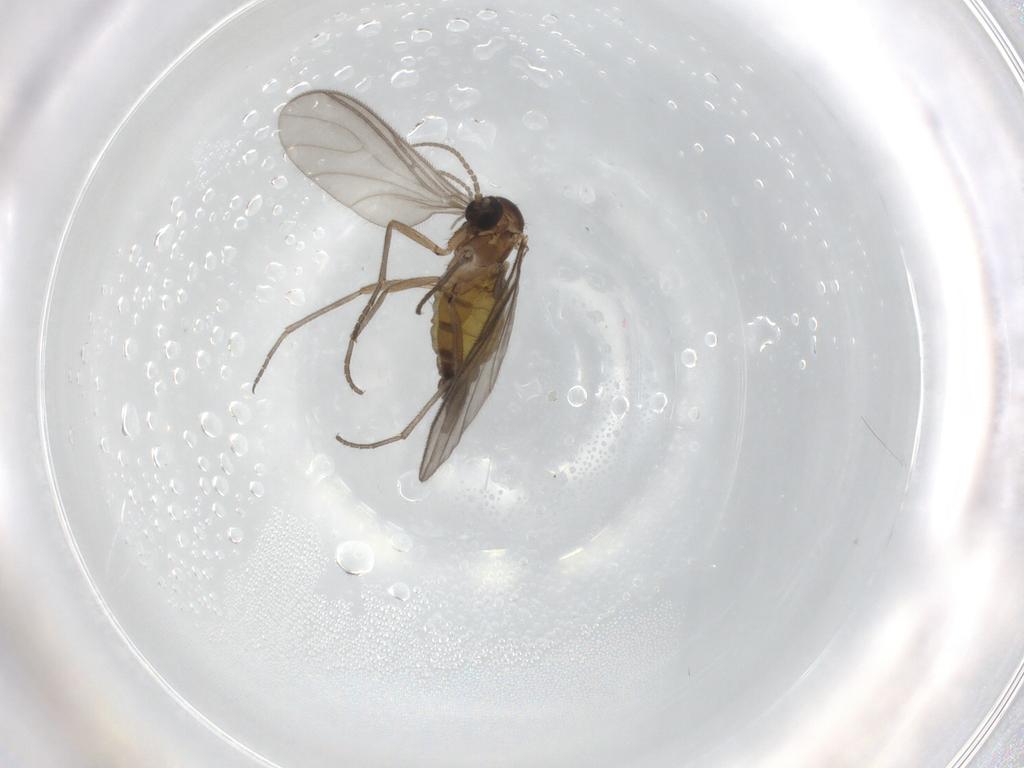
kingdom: Animalia
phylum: Arthropoda
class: Insecta
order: Diptera
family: Sciaridae
